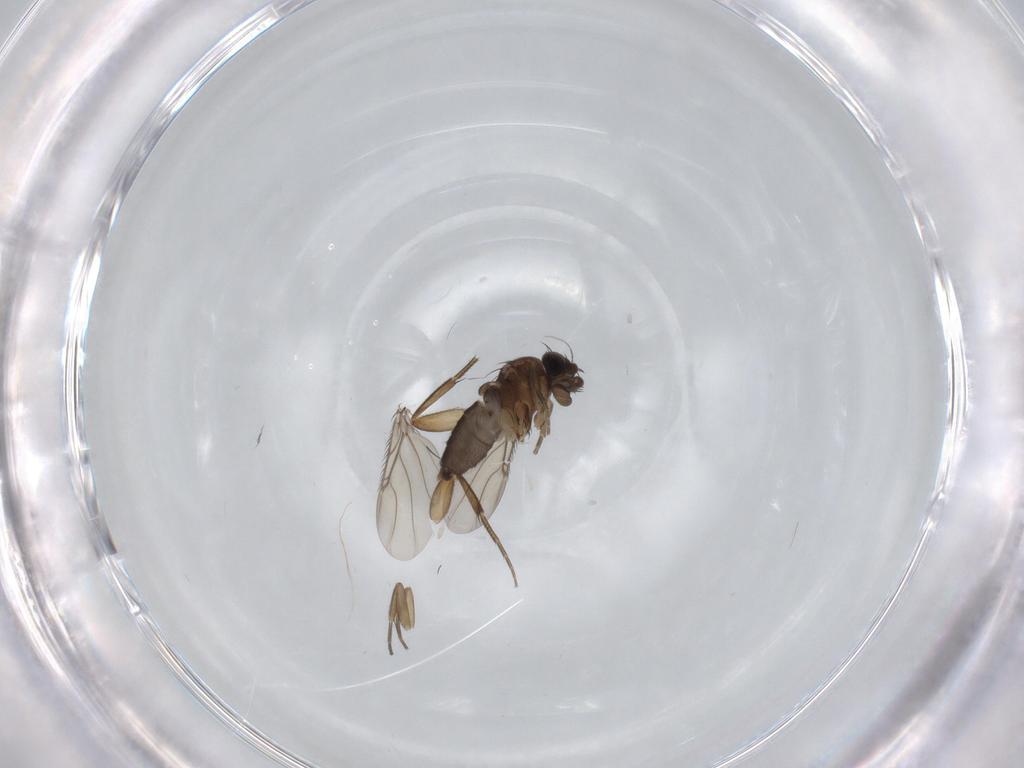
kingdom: Animalia
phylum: Arthropoda
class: Insecta
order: Diptera
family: Phoridae
